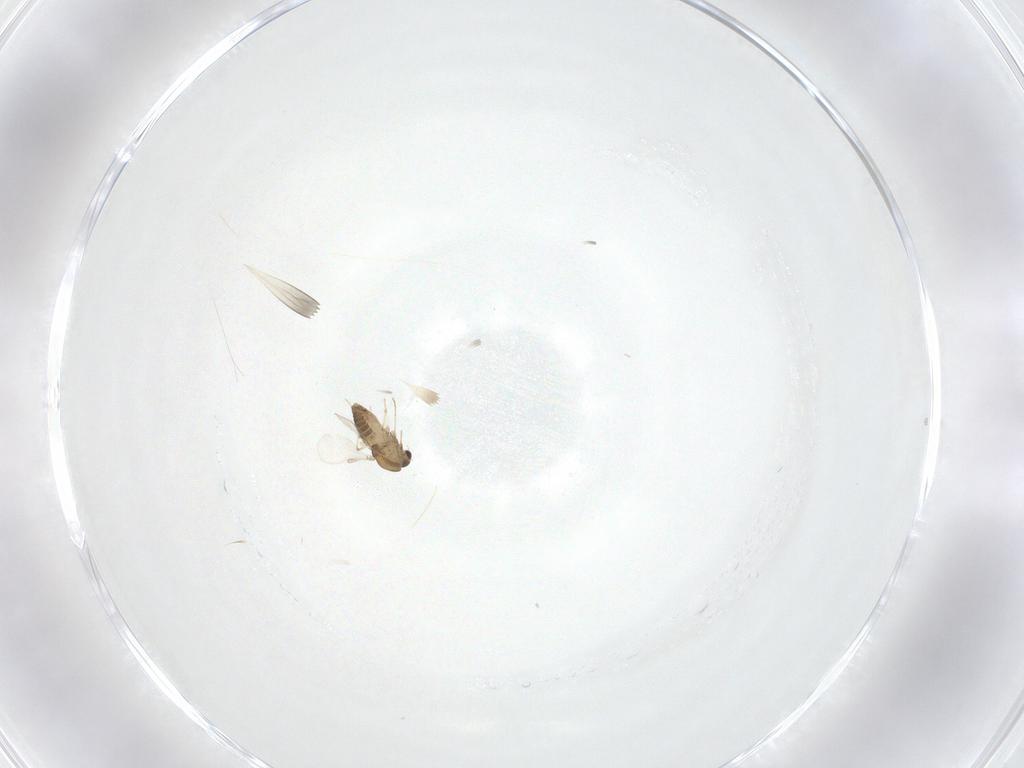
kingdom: Animalia
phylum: Arthropoda
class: Insecta
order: Diptera
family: Chironomidae
